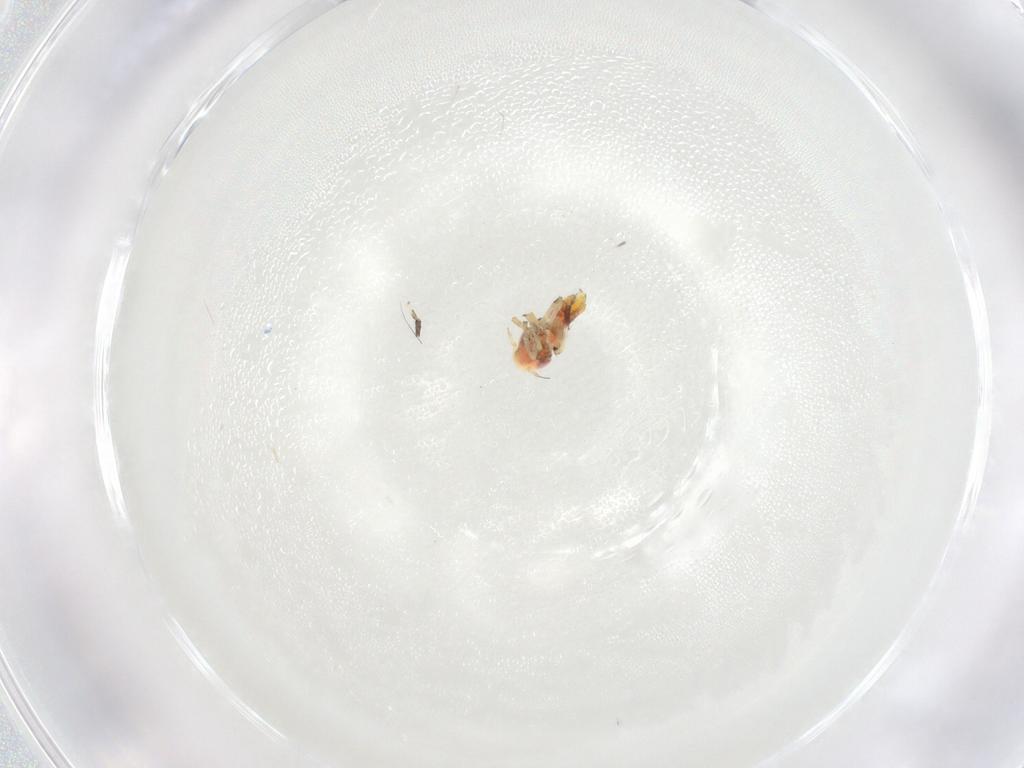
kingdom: Animalia
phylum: Arthropoda
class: Insecta
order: Hemiptera
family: Cicadellidae
